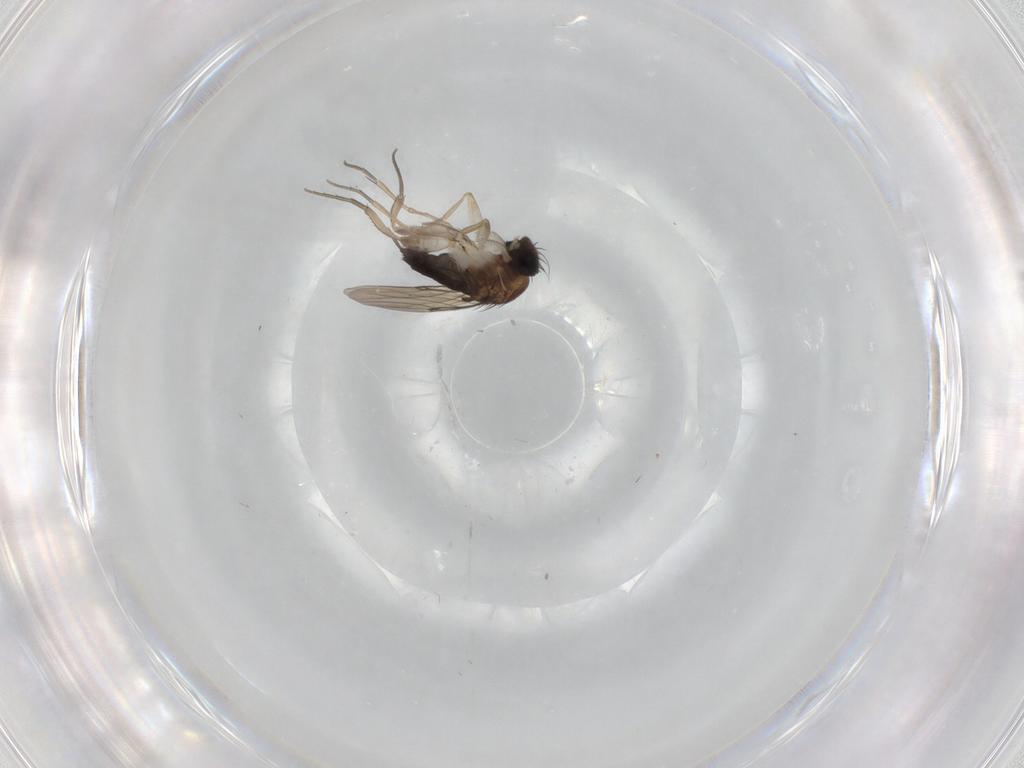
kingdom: Animalia
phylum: Arthropoda
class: Insecta
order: Diptera
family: Phoridae
